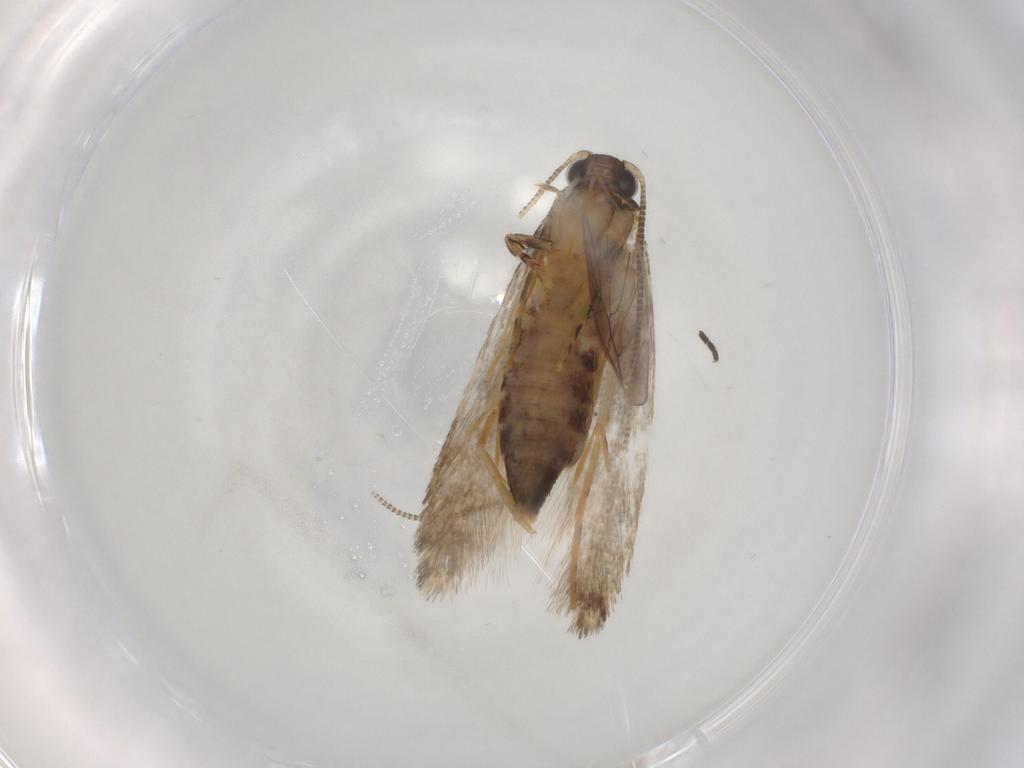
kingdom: Animalia
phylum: Arthropoda
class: Insecta
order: Lepidoptera
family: Tineidae
